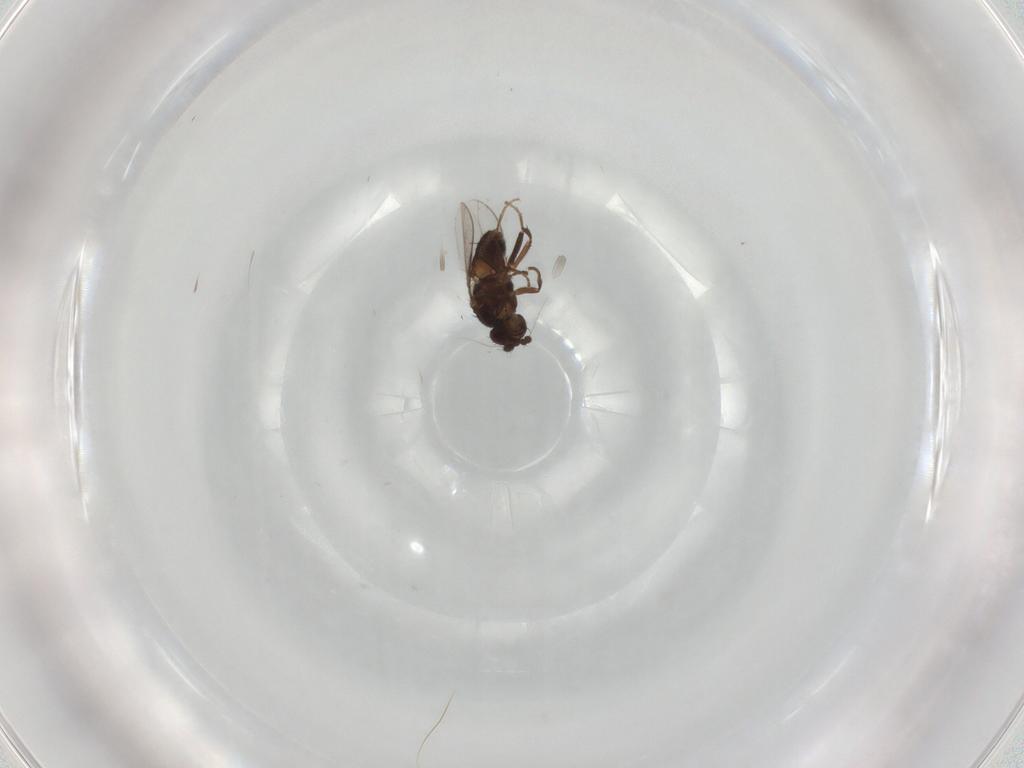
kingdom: Animalia
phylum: Arthropoda
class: Insecta
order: Diptera
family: Sphaeroceridae
